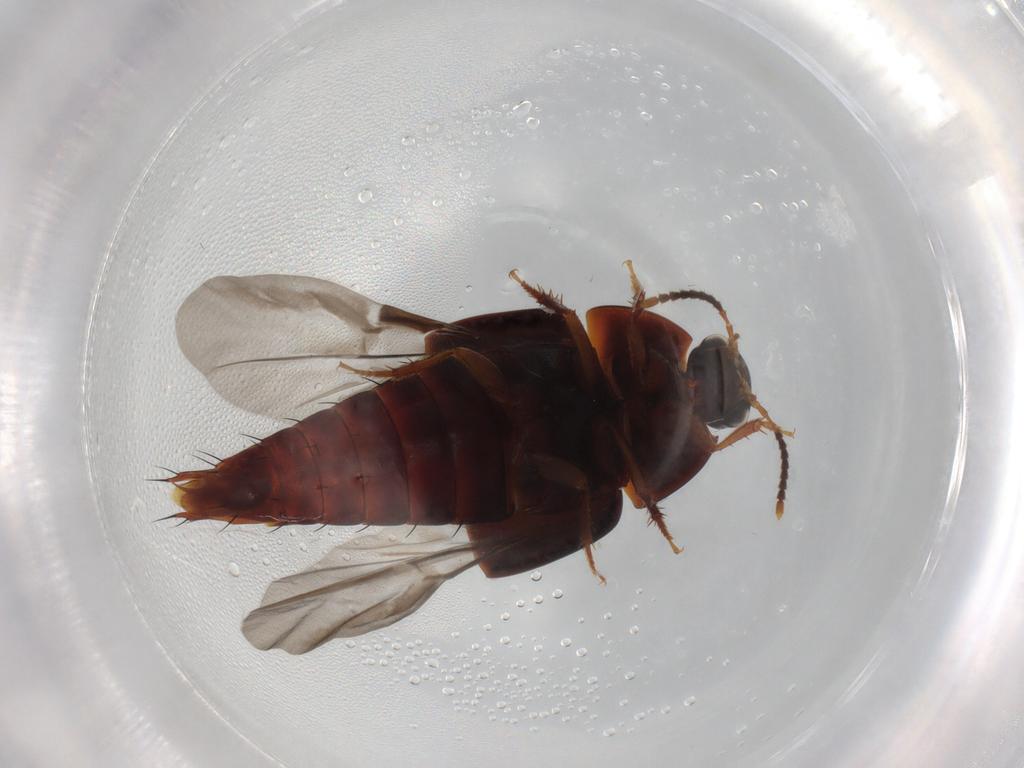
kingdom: Animalia
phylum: Arthropoda
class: Insecta
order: Coleoptera
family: Staphylinidae
